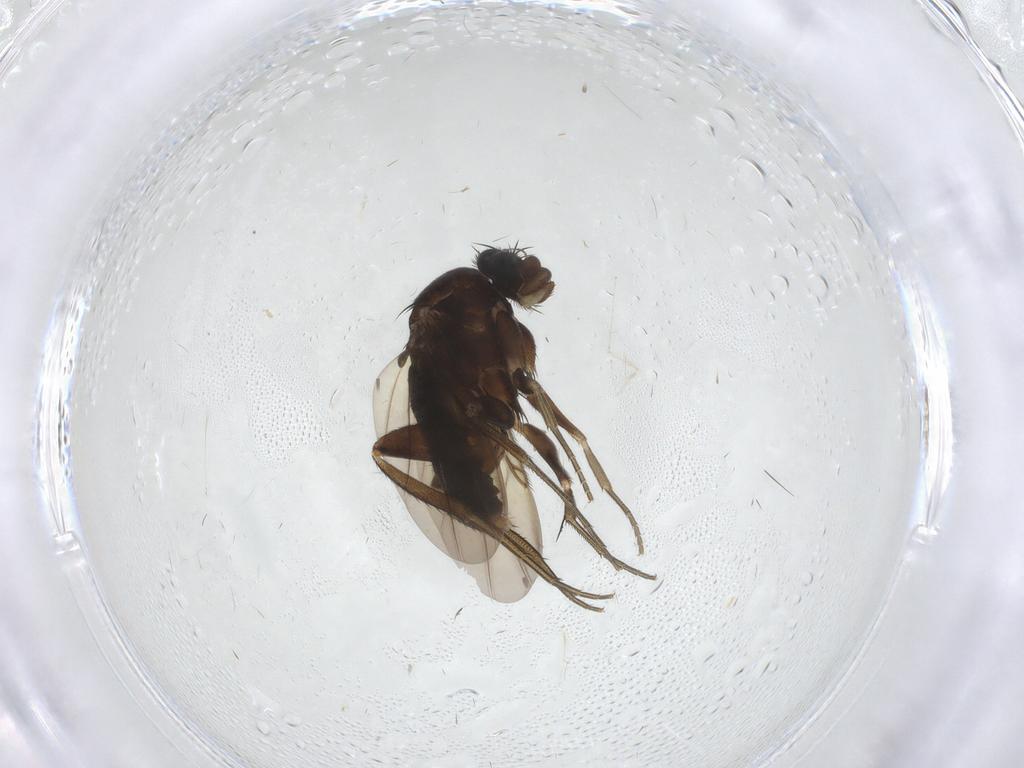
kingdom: Animalia
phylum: Arthropoda
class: Insecta
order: Diptera
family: Phoridae
